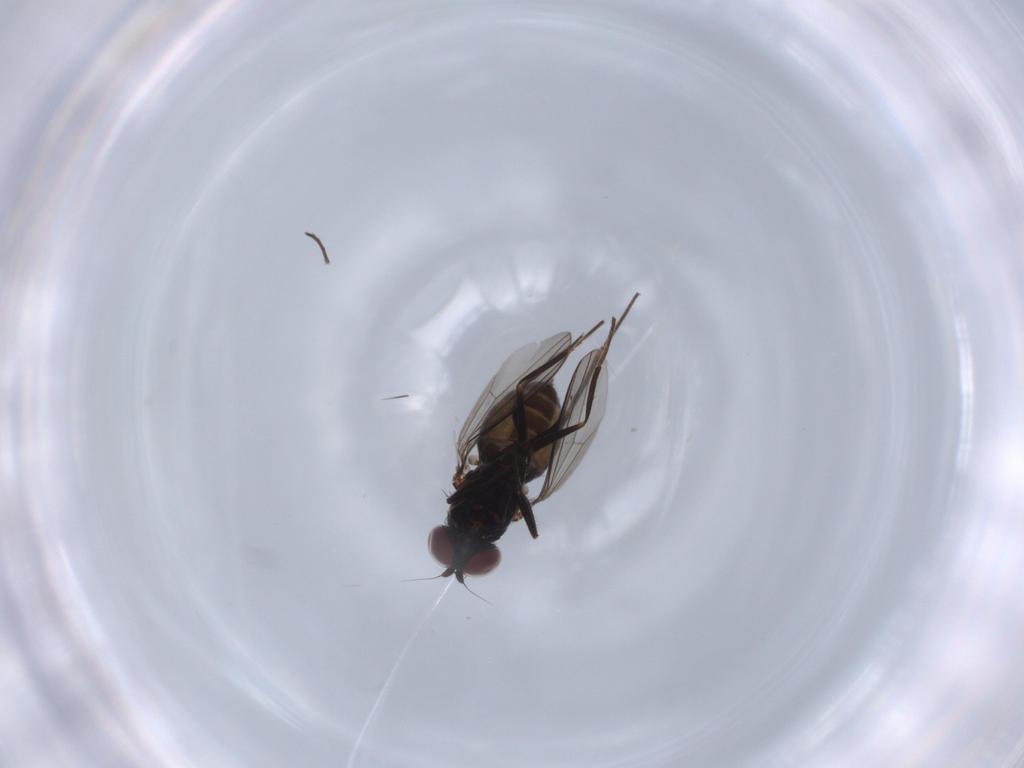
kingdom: Animalia
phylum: Arthropoda
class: Insecta
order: Diptera
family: Dolichopodidae
